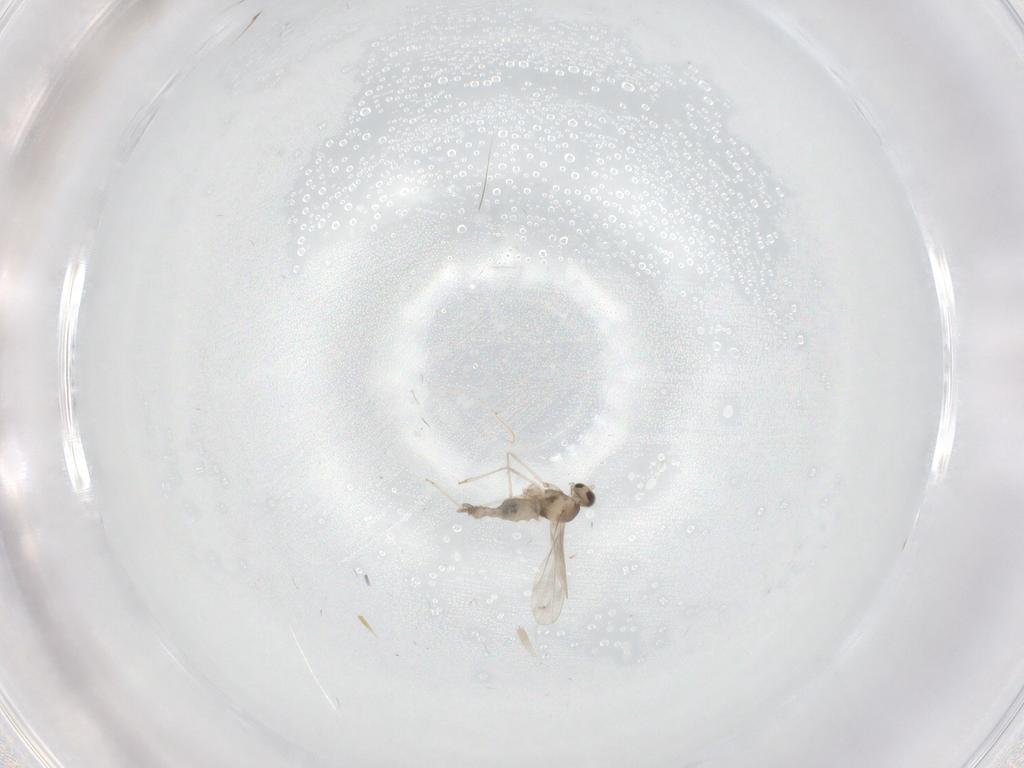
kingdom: Animalia
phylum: Arthropoda
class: Insecta
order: Diptera
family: Cecidomyiidae
